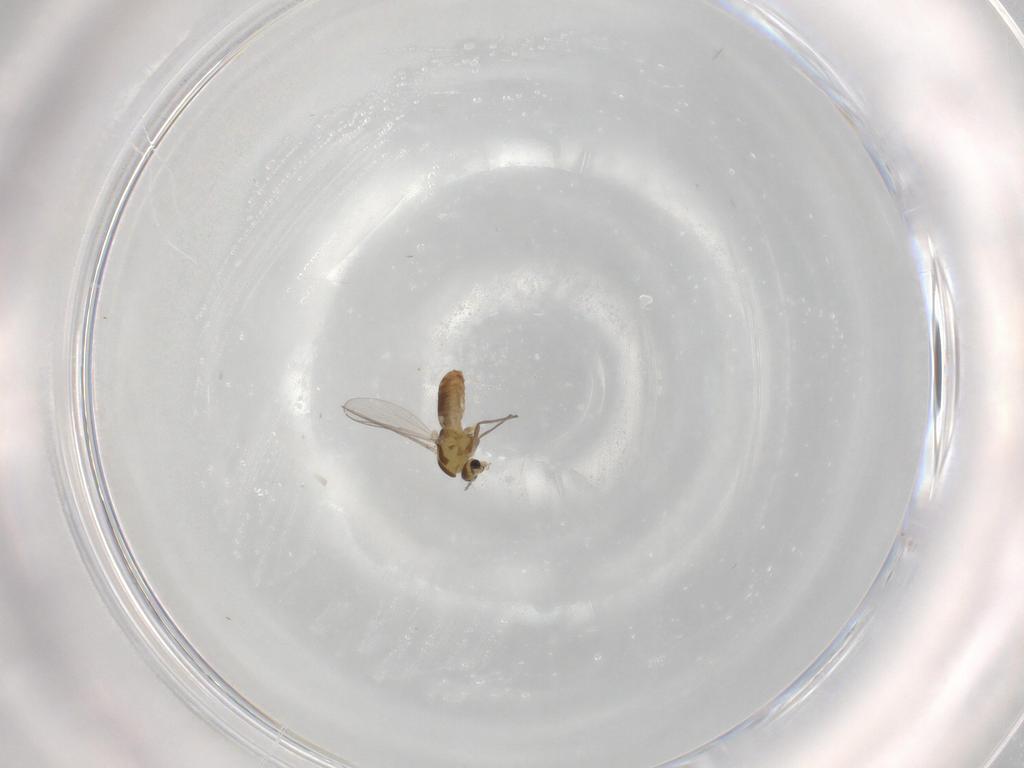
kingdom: Animalia
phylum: Arthropoda
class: Insecta
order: Diptera
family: Chironomidae
